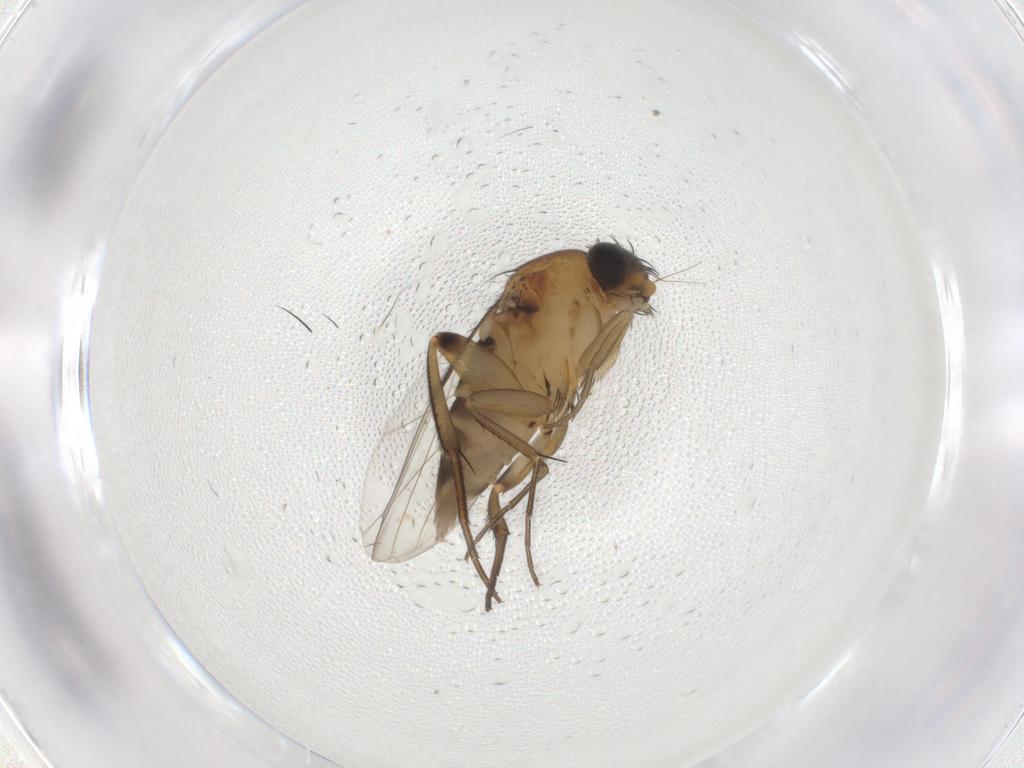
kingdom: Animalia
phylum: Arthropoda
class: Insecta
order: Diptera
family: Phoridae
